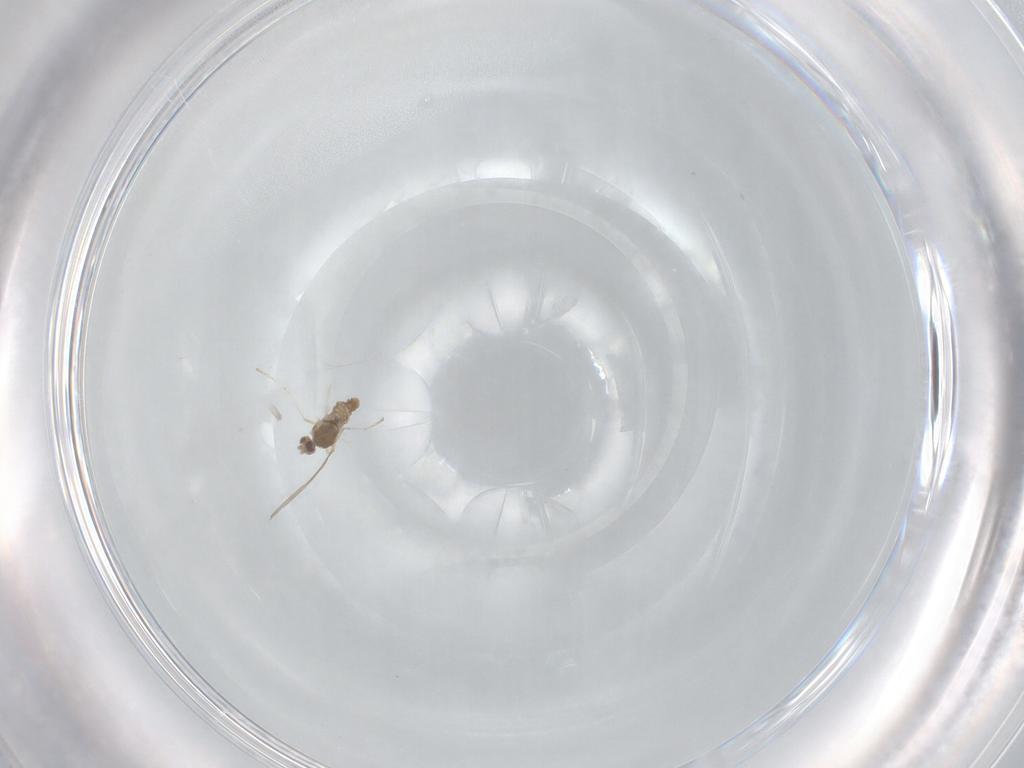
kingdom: Animalia
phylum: Arthropoda
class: Insecta
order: Diptera
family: Cecidomyiidae
